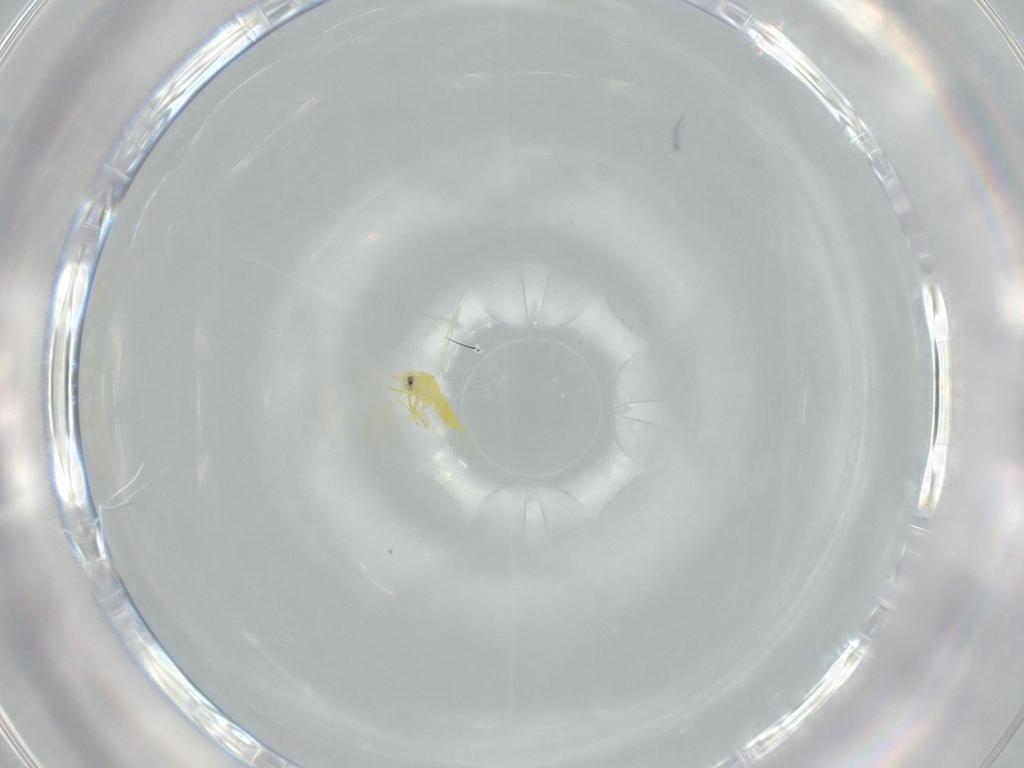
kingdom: Animalia
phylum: Arthropoda
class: Insecta
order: Hemiptera
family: Aleyrodidae
